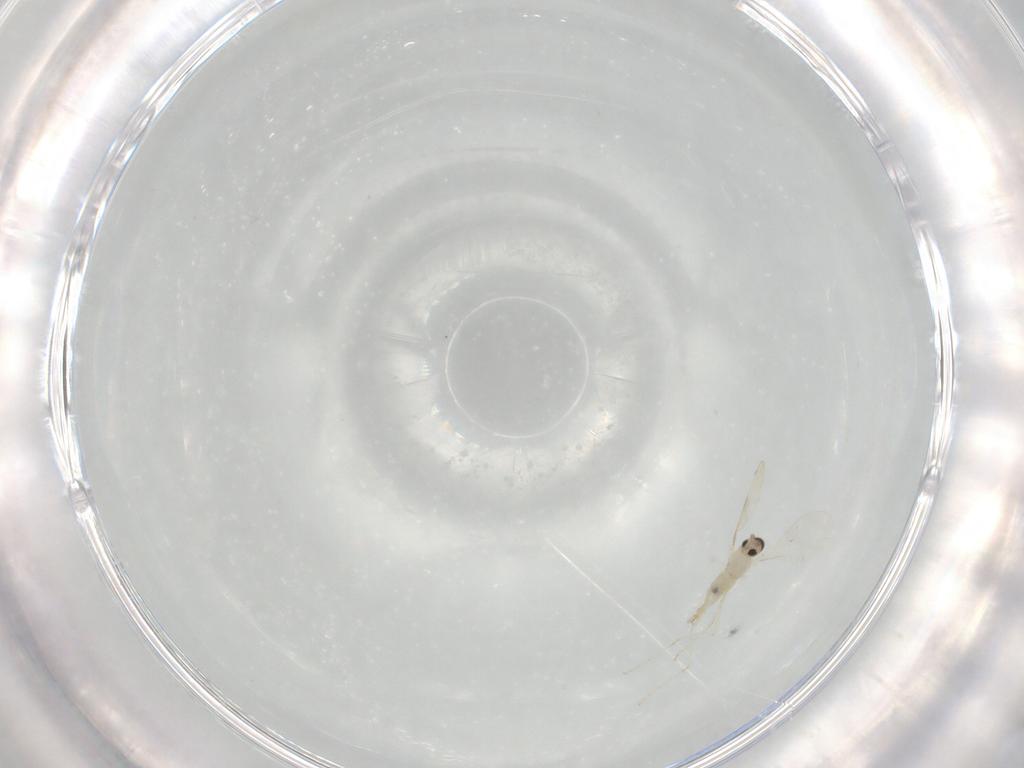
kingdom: Animalia
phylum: Arthropoda
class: Insecta
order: Diptera
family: Cecidomyiidae
